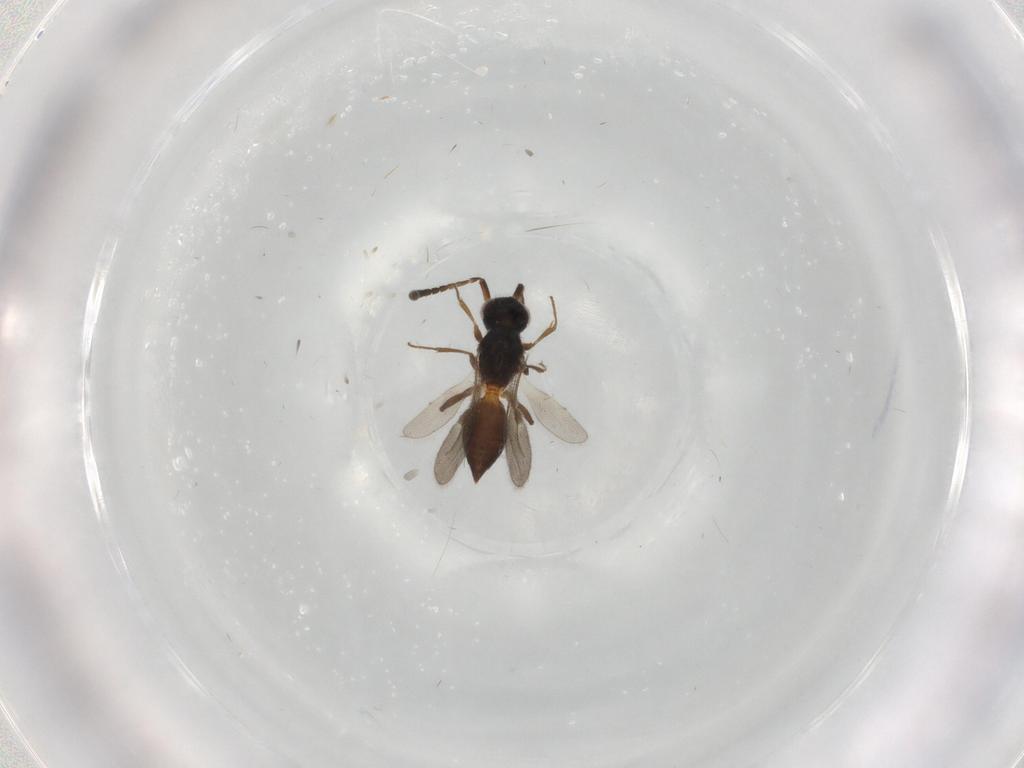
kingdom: Animalia
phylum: Arthropoda
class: Insecta
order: Hymenoptera
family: Megaspilidae
